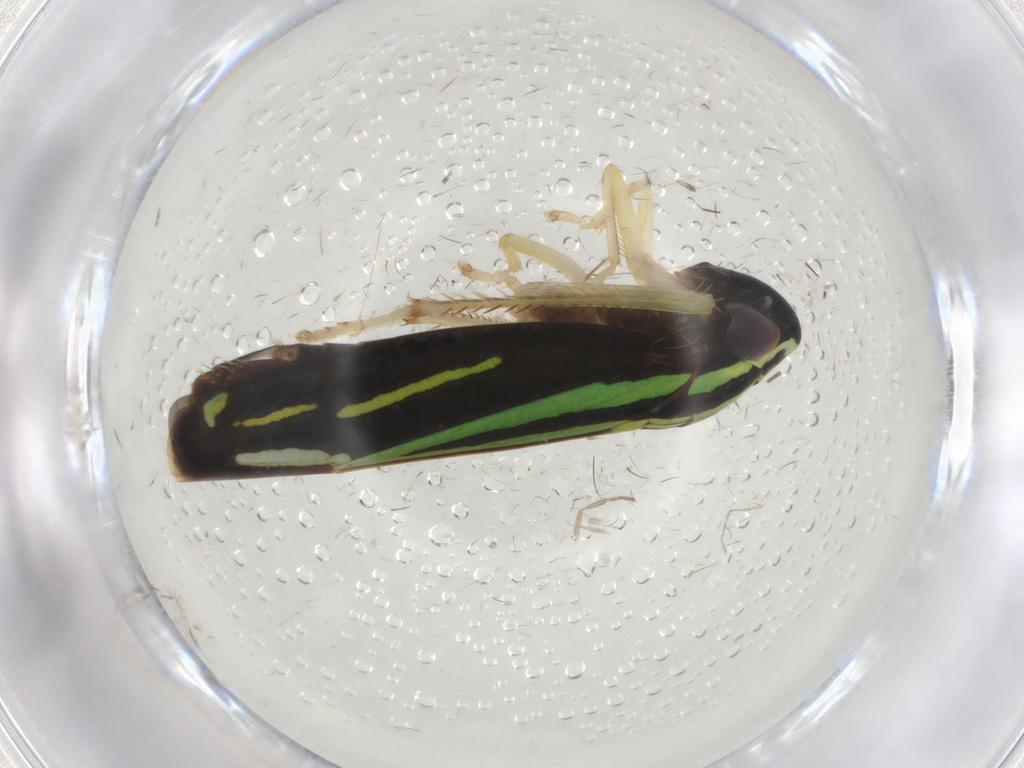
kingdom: Animalia
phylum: Arthropoda
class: Insecta
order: Hemiptera
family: Cicadellidae
